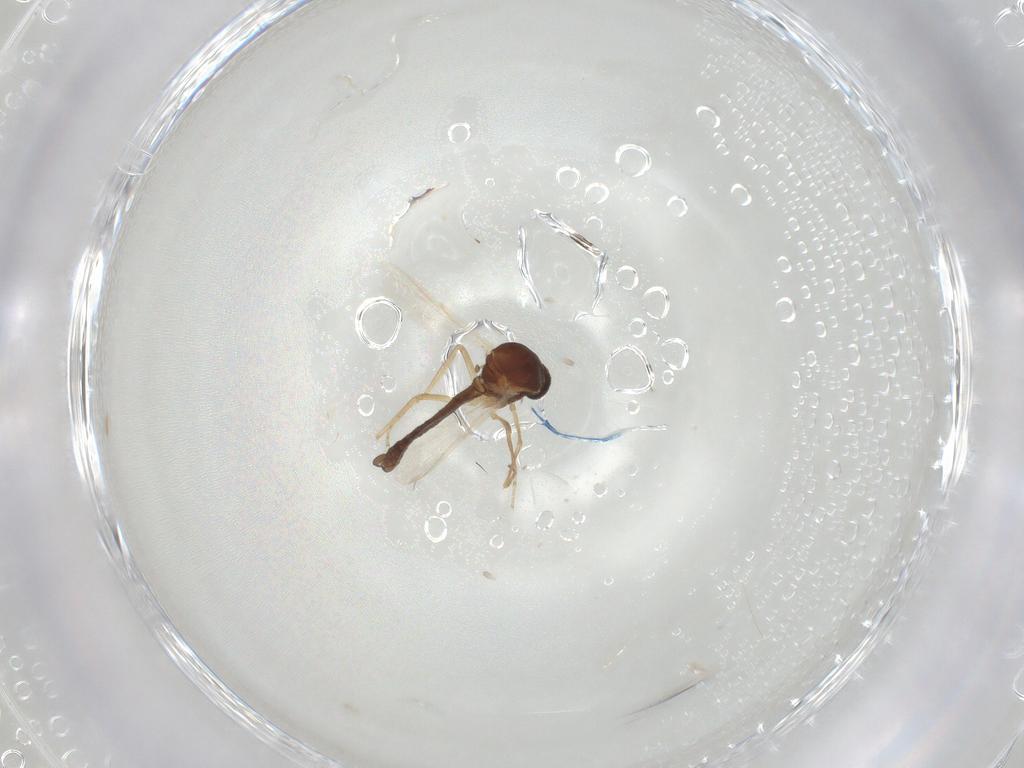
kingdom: Animalia
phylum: Arthropoda
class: Insecta
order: Diptera
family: Ceratopogonidae
